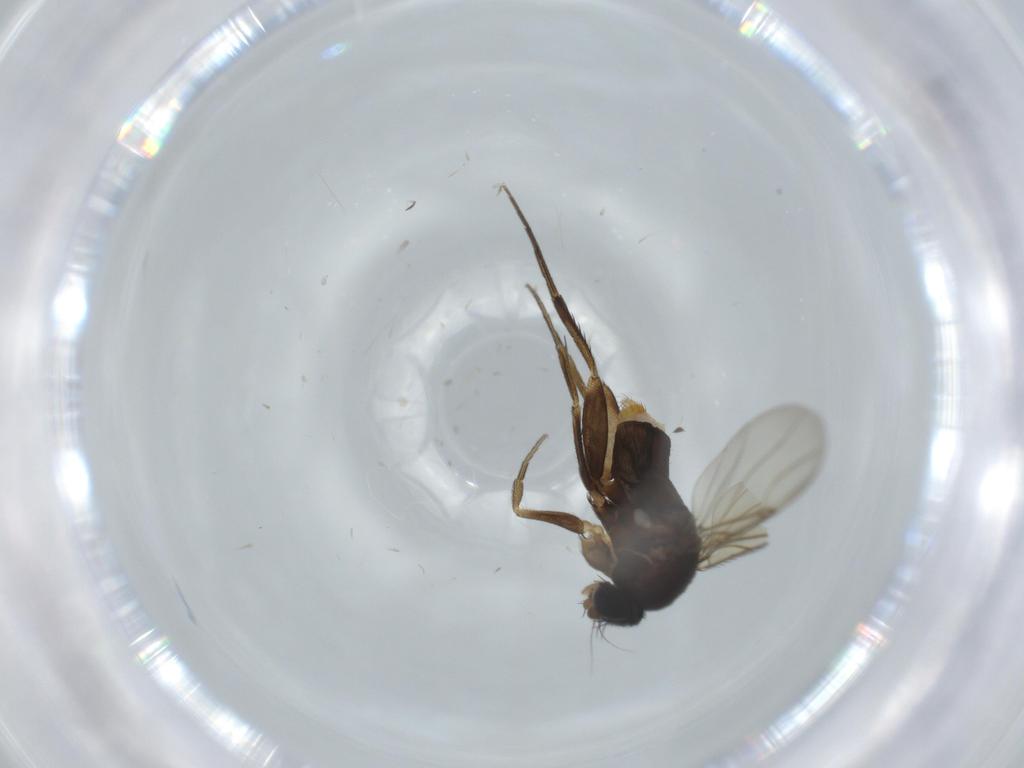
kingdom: Animalia
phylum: Arthropoda
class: Insecta
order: Diptera
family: Phoridae
